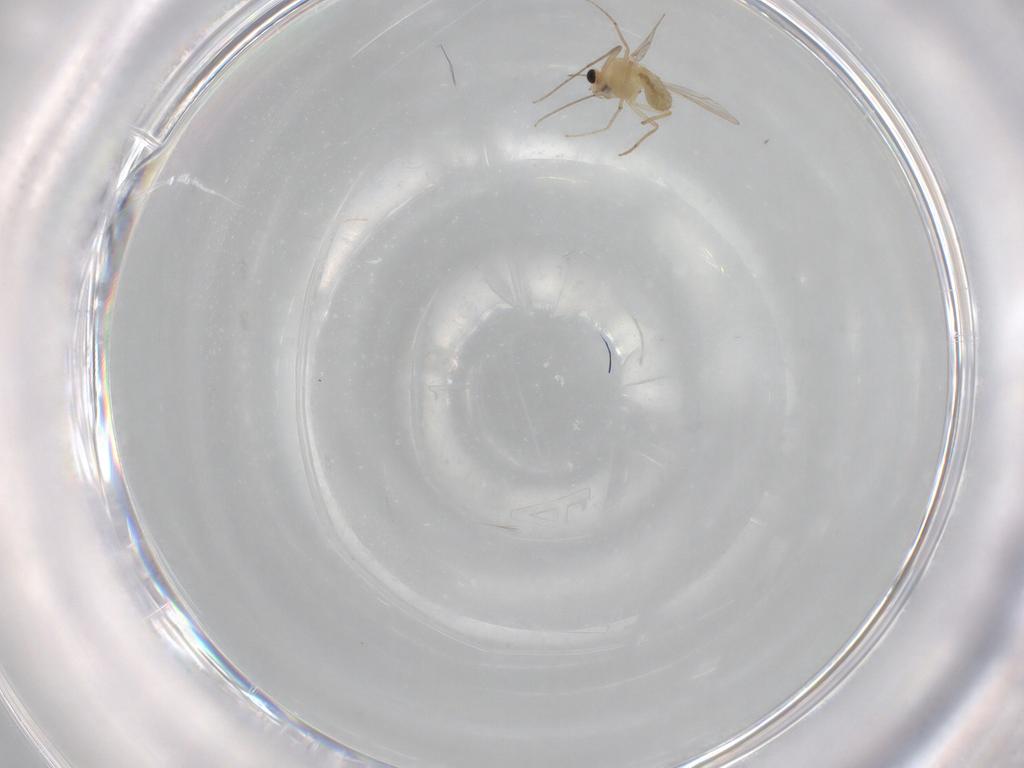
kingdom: Animalia
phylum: Arthropoda
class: Insecta
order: Diptera
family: Chironomidae
